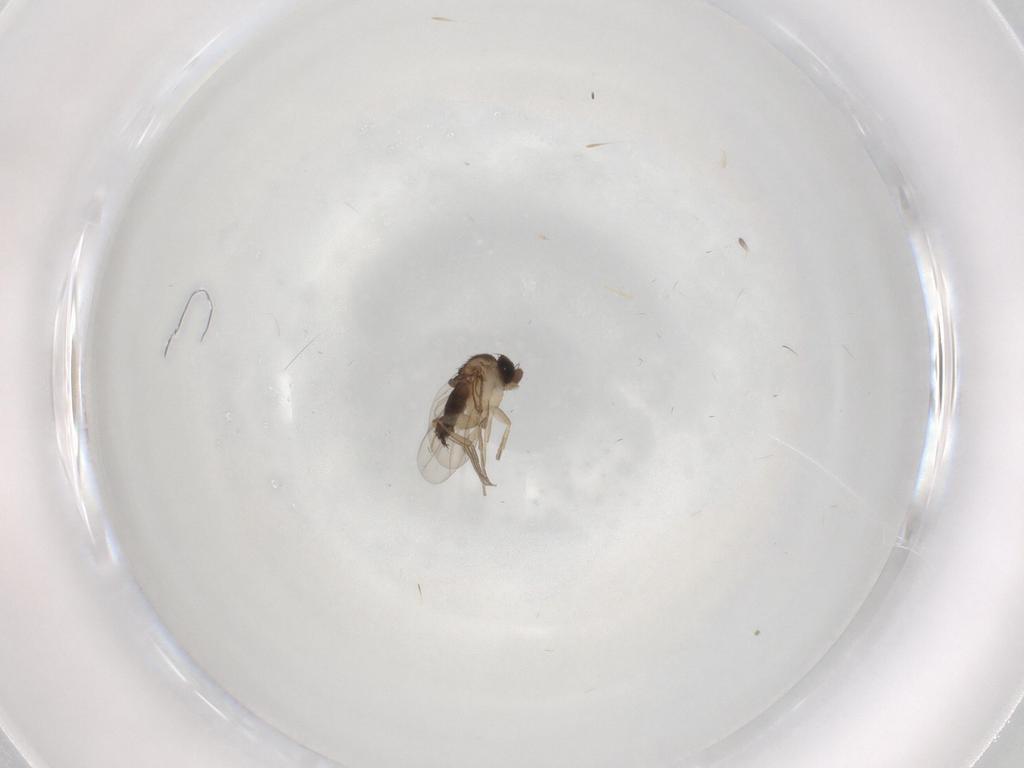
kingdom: Animalia
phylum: Arthropoda
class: Insecta
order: Diptera
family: Phoridae
